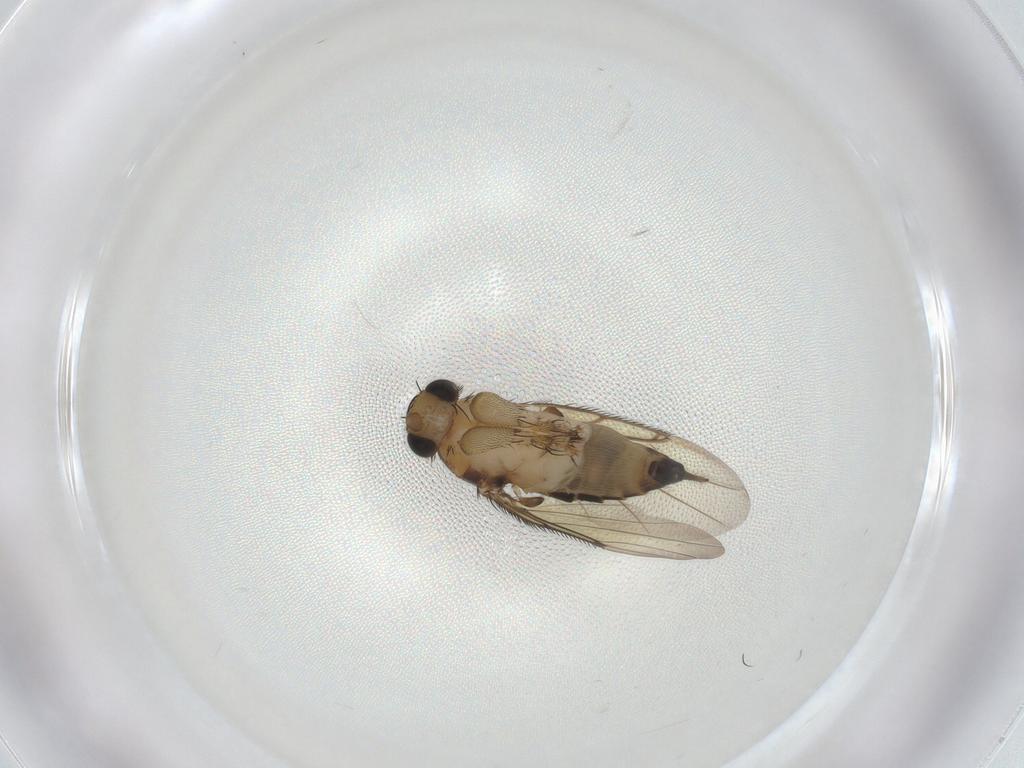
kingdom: Animalia
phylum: Arthropoda
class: Insecta
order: Diptera
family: Phoridae
